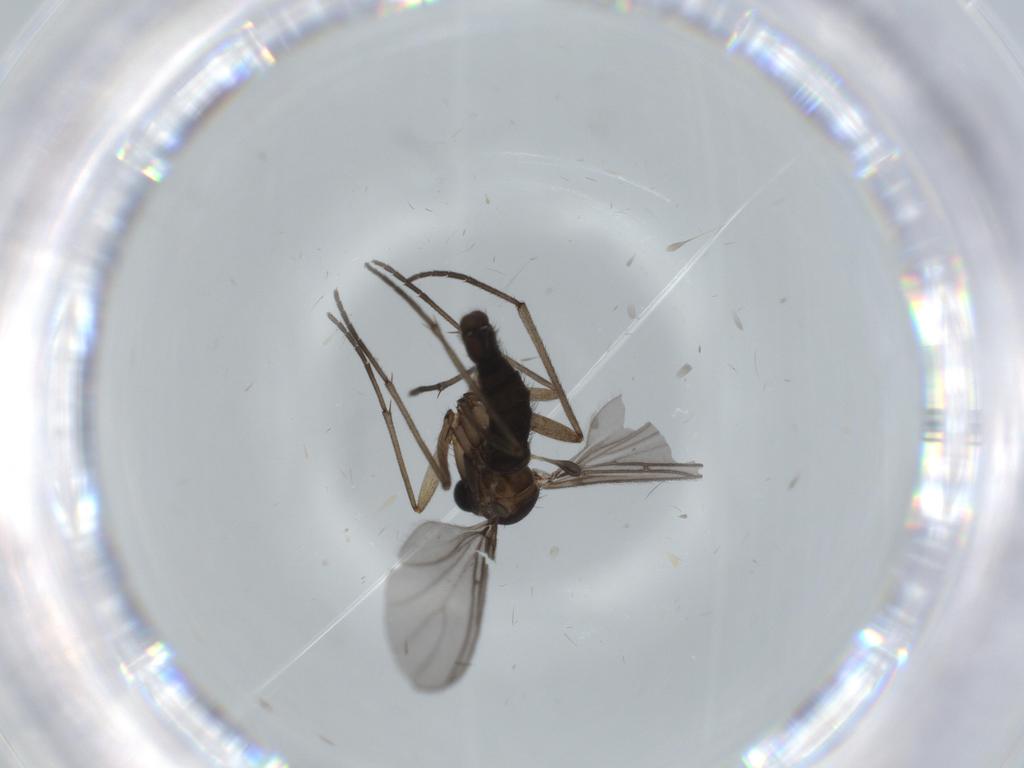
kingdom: Animalia
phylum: Arthropoda
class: Insecta
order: Diptera
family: Sciaridae
